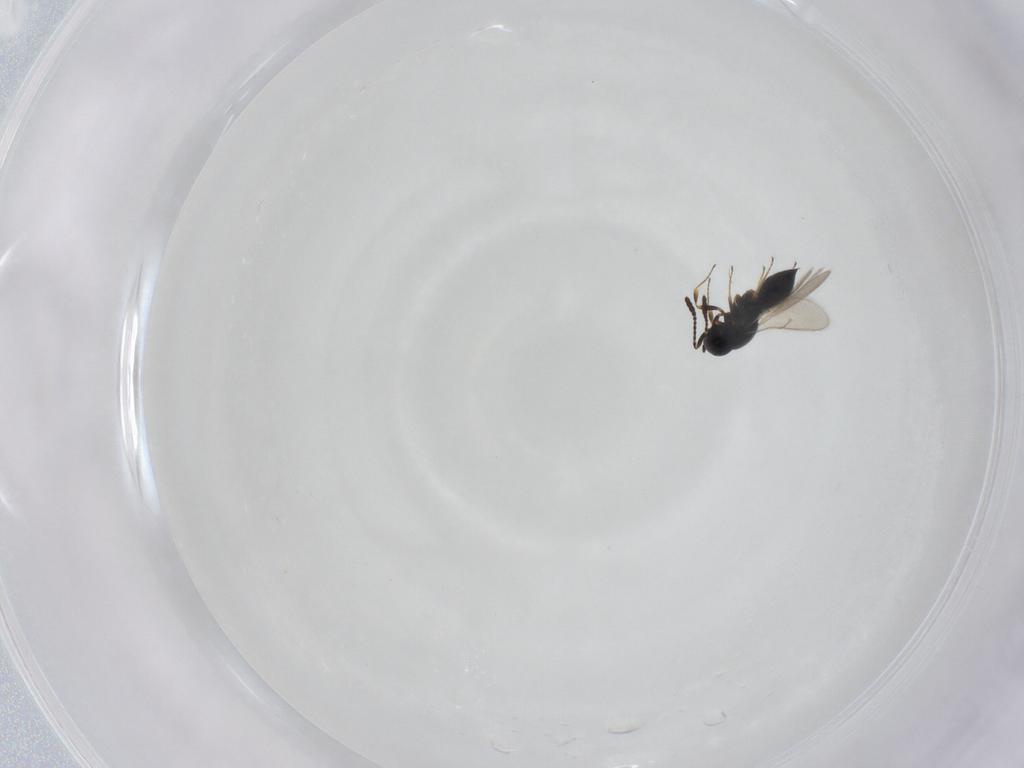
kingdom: Animalia
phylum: Arthropoda
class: Insecta
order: Hymenoptera
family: Scelionidae
